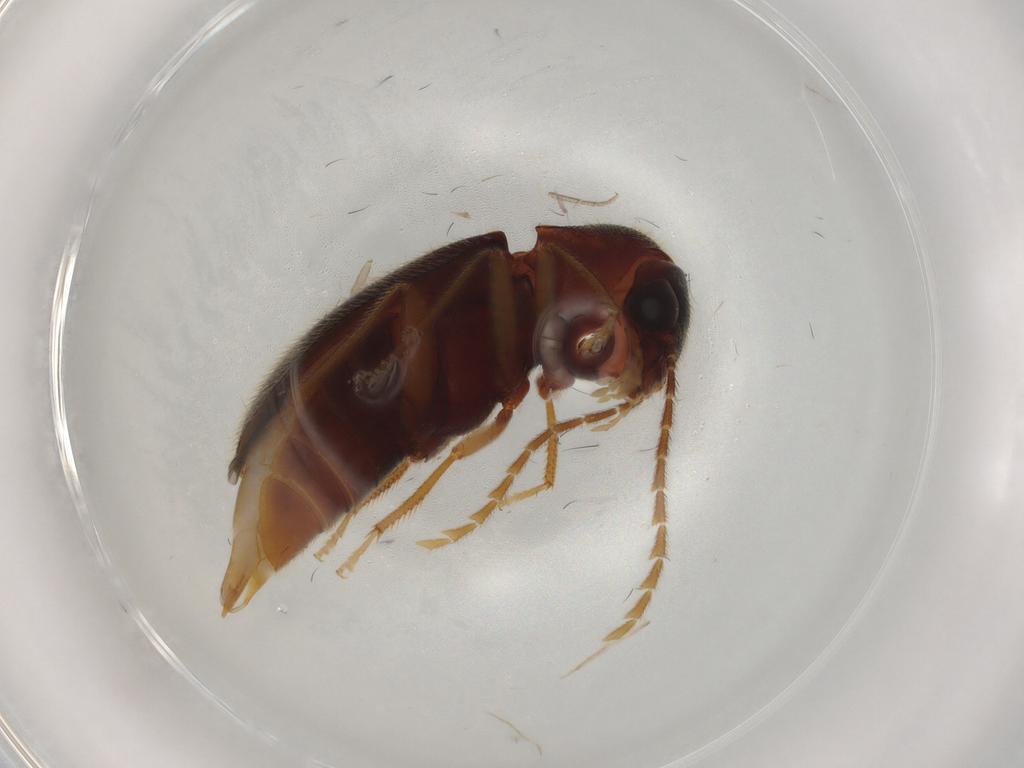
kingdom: Animalia
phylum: Arthropoda
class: Insecta
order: Coleoptera
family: Ptilodactylidae
